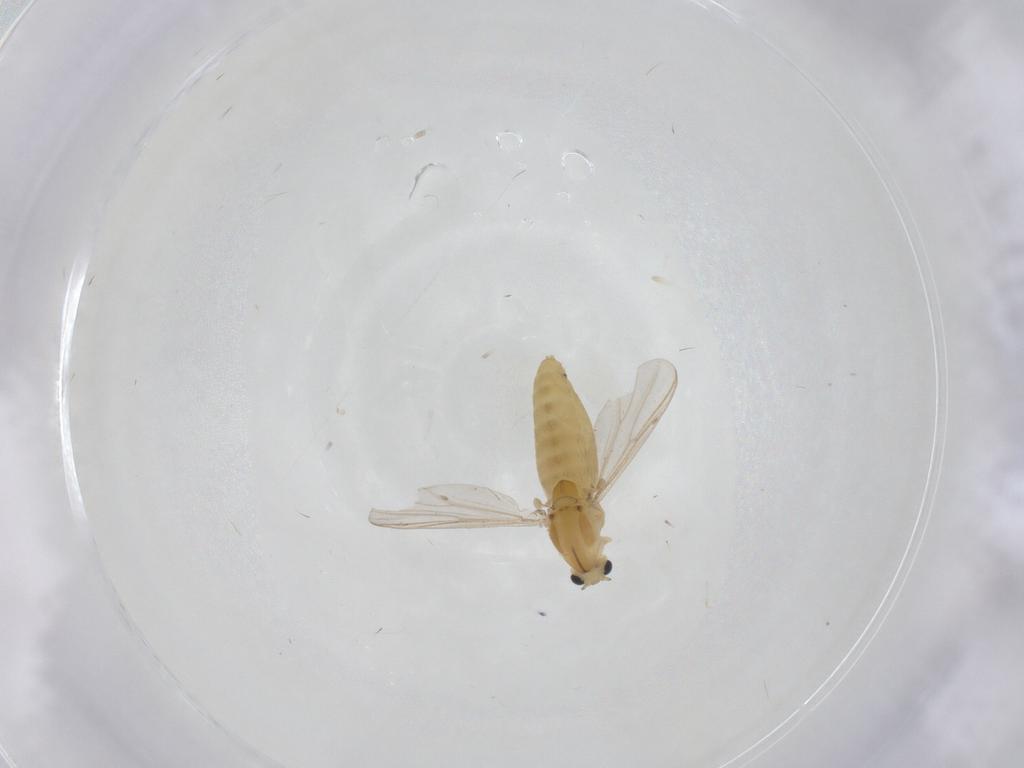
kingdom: Animalia
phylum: Arthropoda
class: Insecta
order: Diptera
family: Chironomidae
